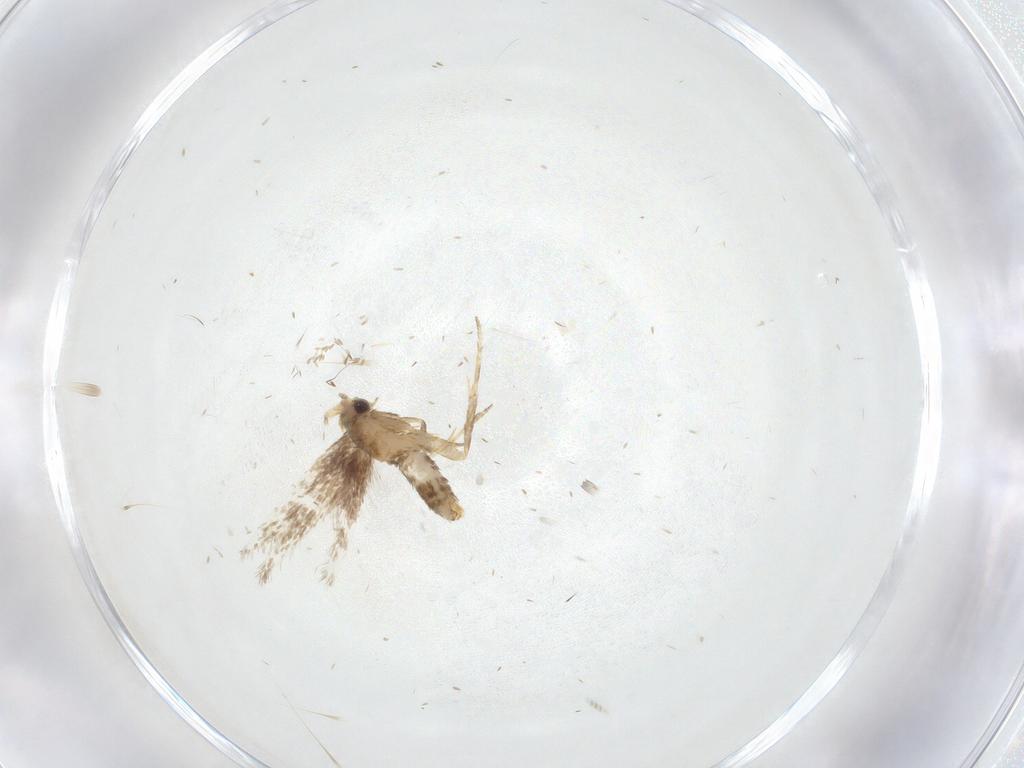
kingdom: Animalia
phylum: Arthropoda
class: Insecta
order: Lepidoptera
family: Nepticulidae
